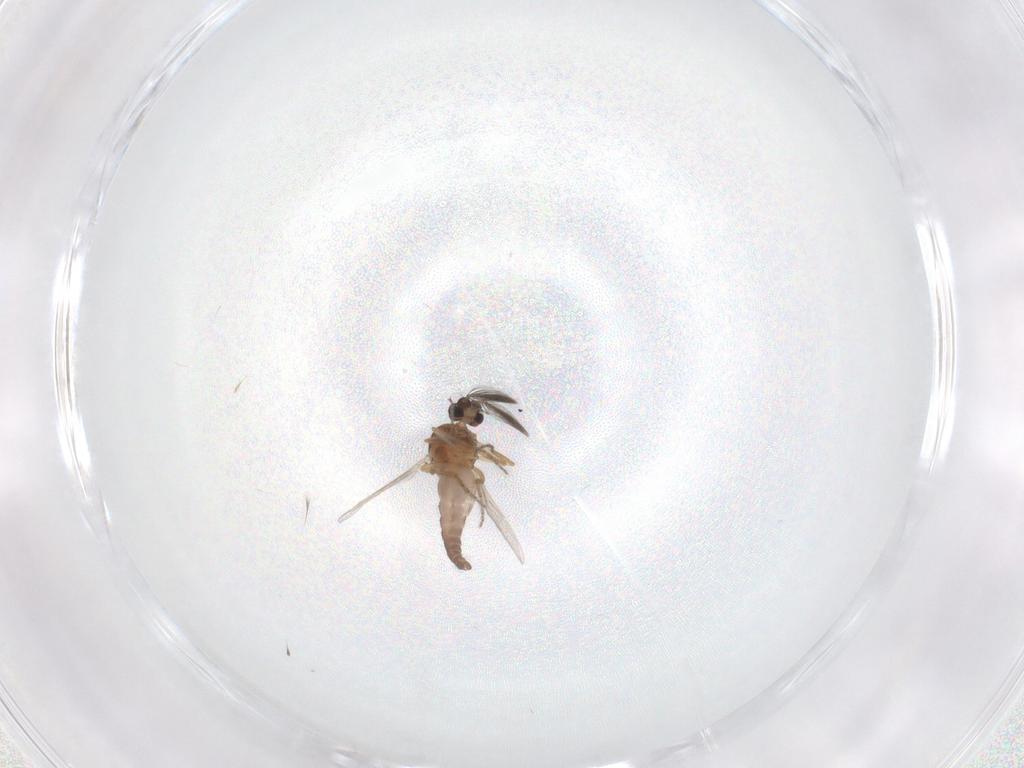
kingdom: Animalia
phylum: Arthropoda
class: Insecta
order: Diptera
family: Ceratopogonidae
